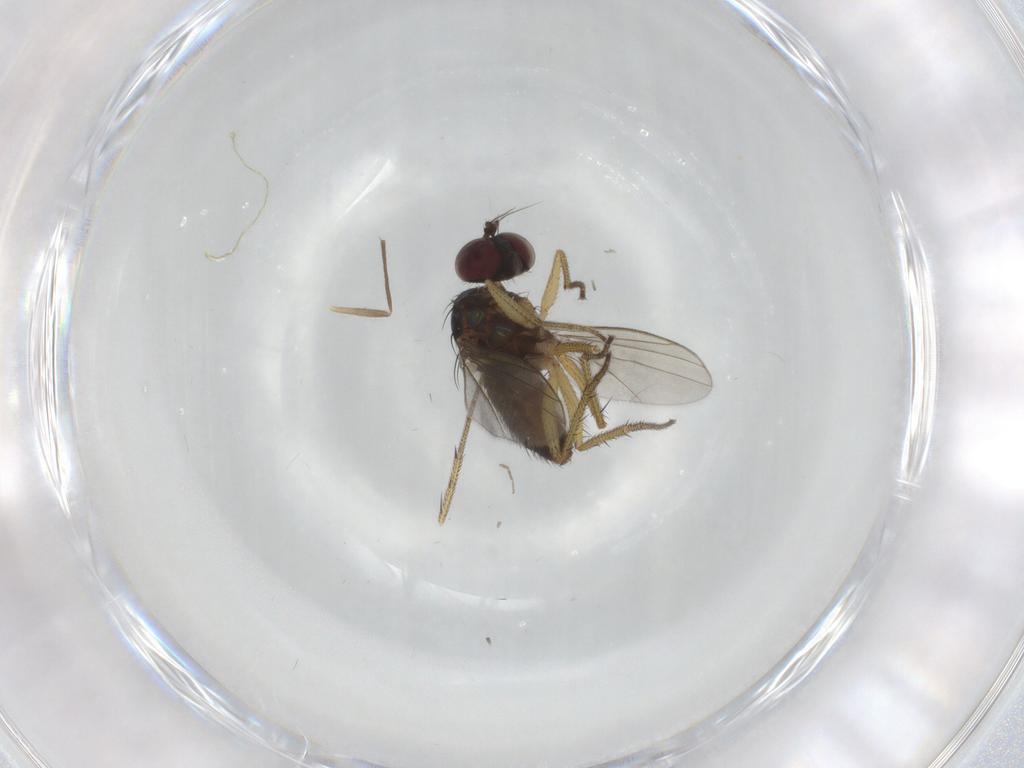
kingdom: Animalia
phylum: Arthropoda
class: Insecta
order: Diptera
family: Dolichopodidae
